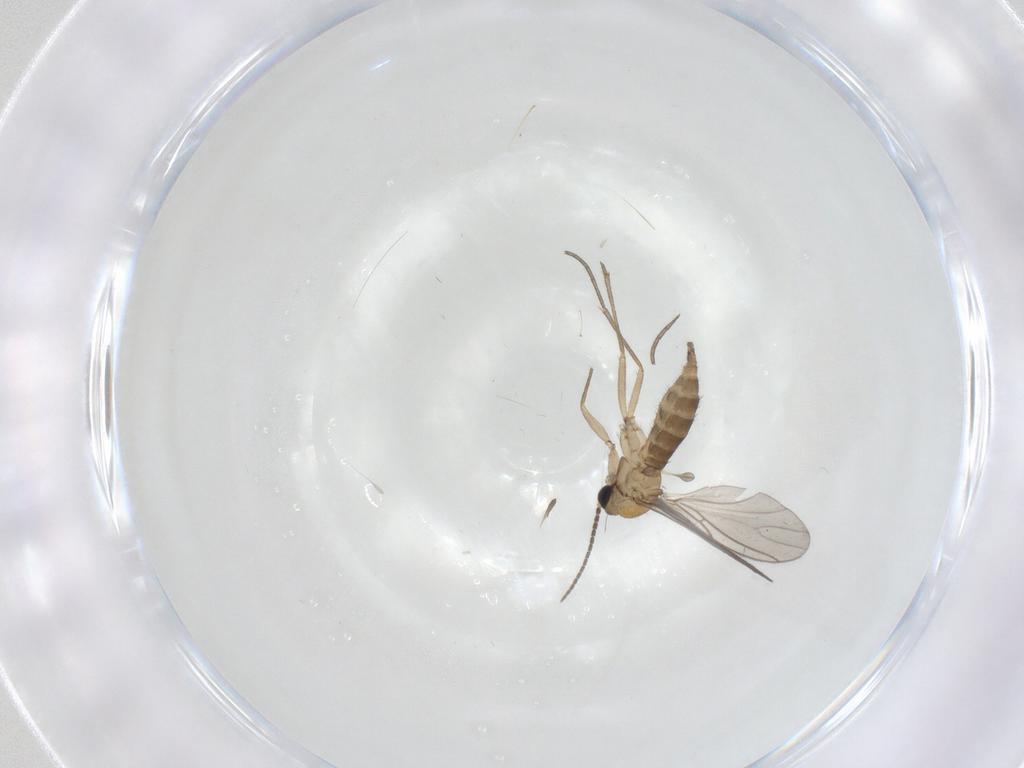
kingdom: Animalia
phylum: Arthropoda
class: Insecta
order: Diptera
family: Sciaridae
